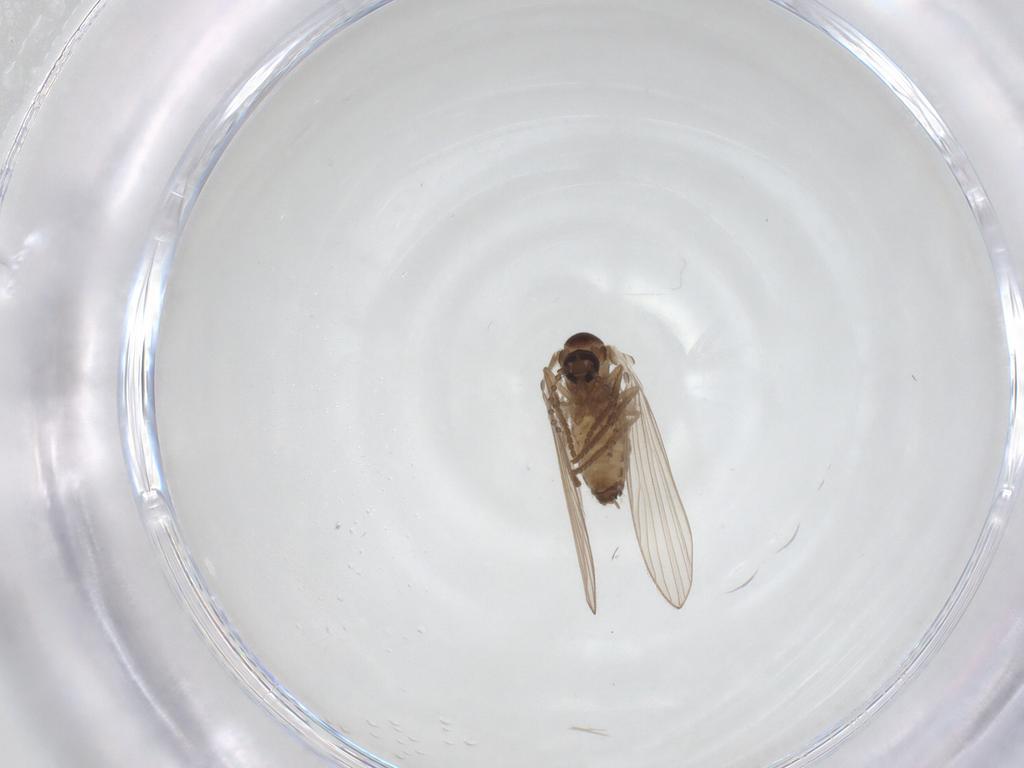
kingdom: Animalia
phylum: Arthropoda
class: Insecta
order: Diptera
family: Psychodidae
